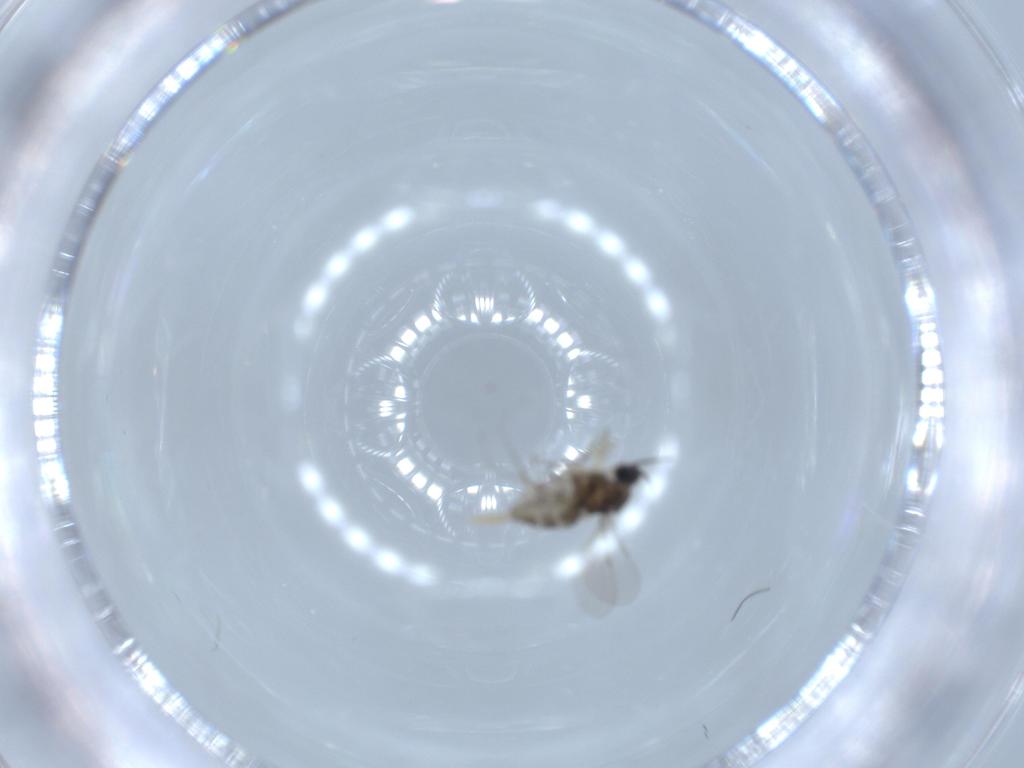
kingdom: Animalia
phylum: Arthropoda
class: Insecta
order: Diptera
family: Cecidomyiidae
